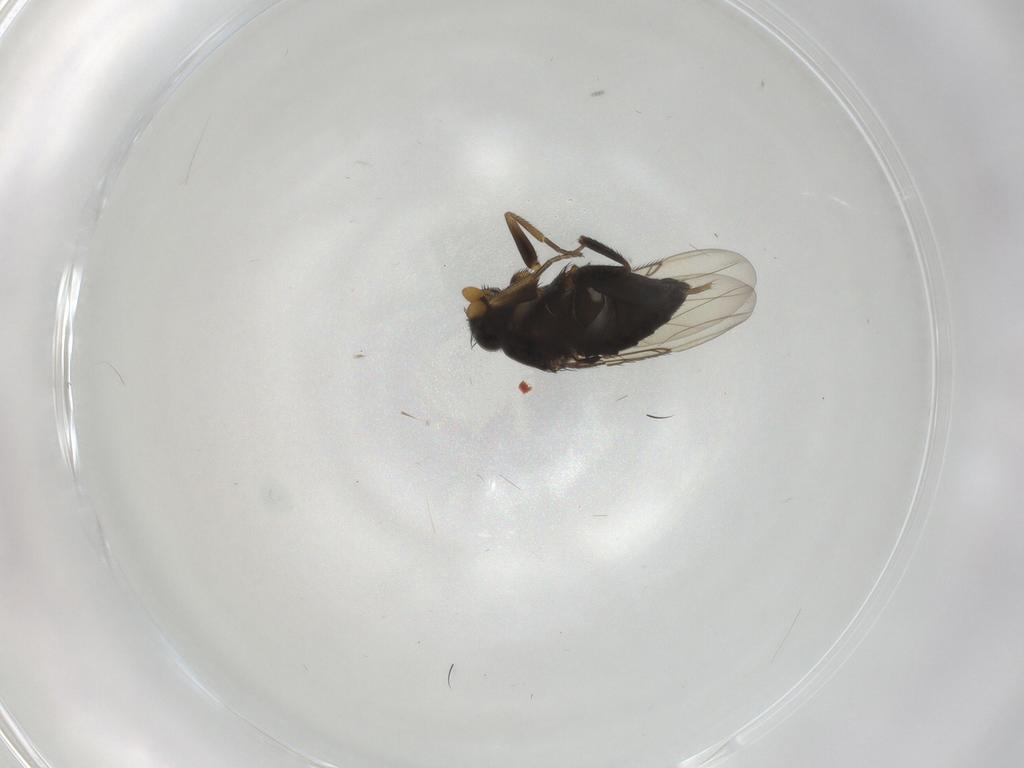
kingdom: Animalia
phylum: Arthropoda
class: Insecta
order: Diptera
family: Phoridae
